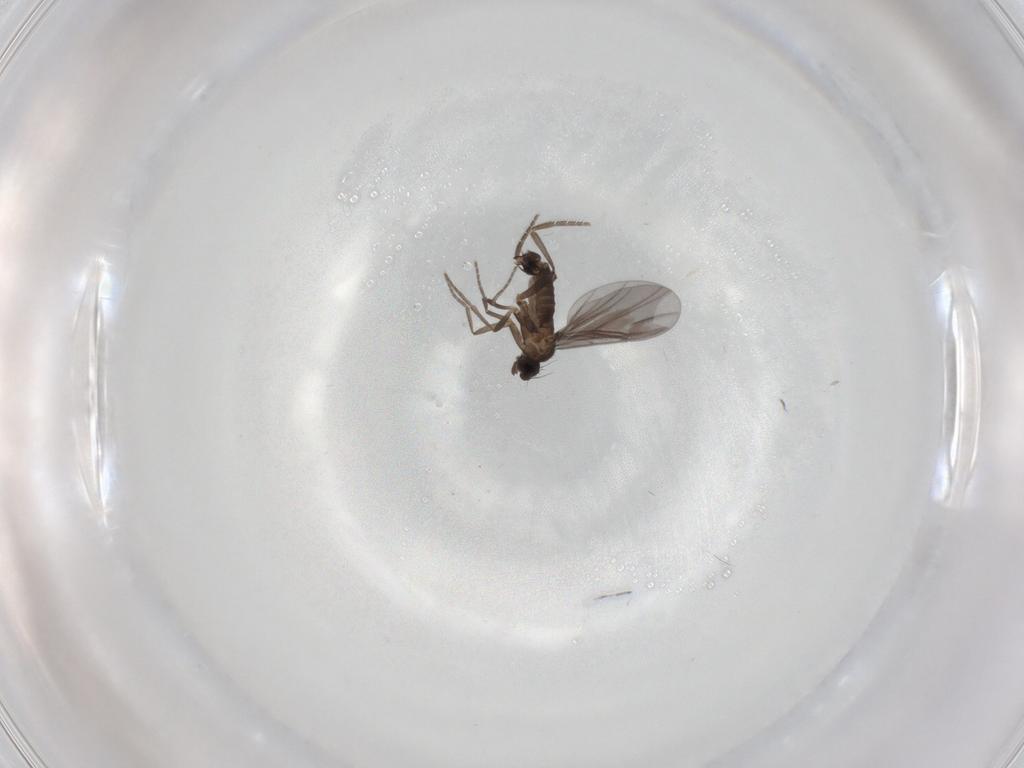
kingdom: Animalia
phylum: Arthropoda
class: Insecta
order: Diptera
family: Phoridae
